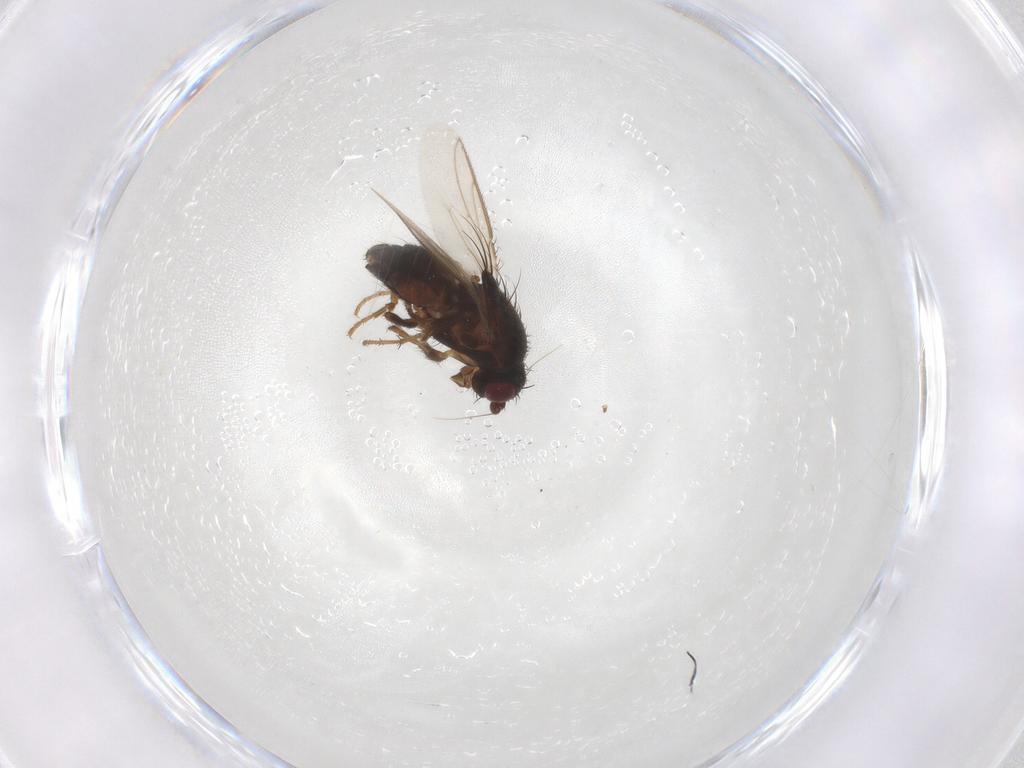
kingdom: Animalia
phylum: Arthropoda
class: Insecta
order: Diptera
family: Sphaeroceridae
